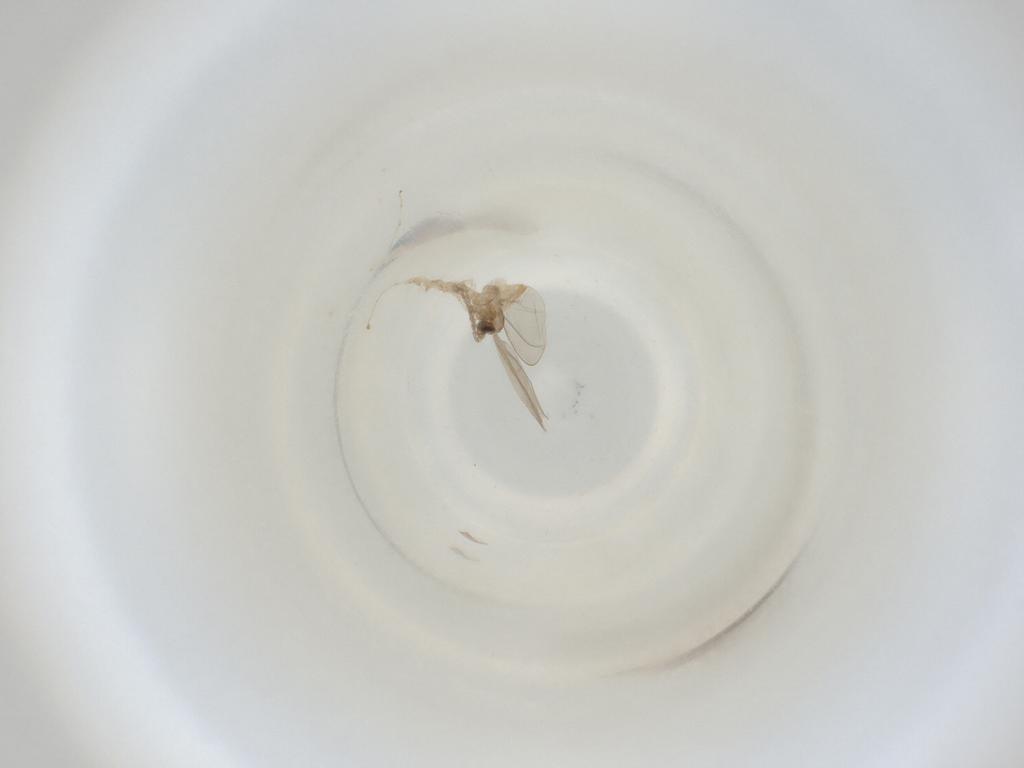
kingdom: Animalia
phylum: Arthropoda
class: Insecta
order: Diptera
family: Cecidomyiidae
